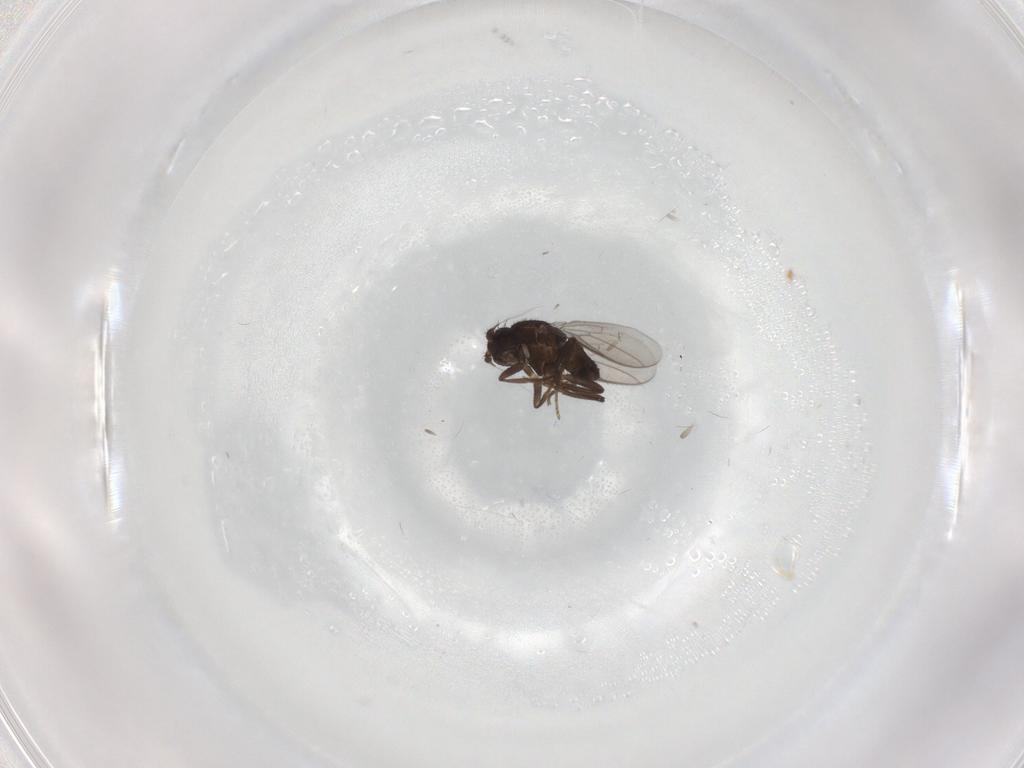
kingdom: Animalia
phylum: Arthropoda
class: Insecta
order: Diptera
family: Sphaeroceridae
